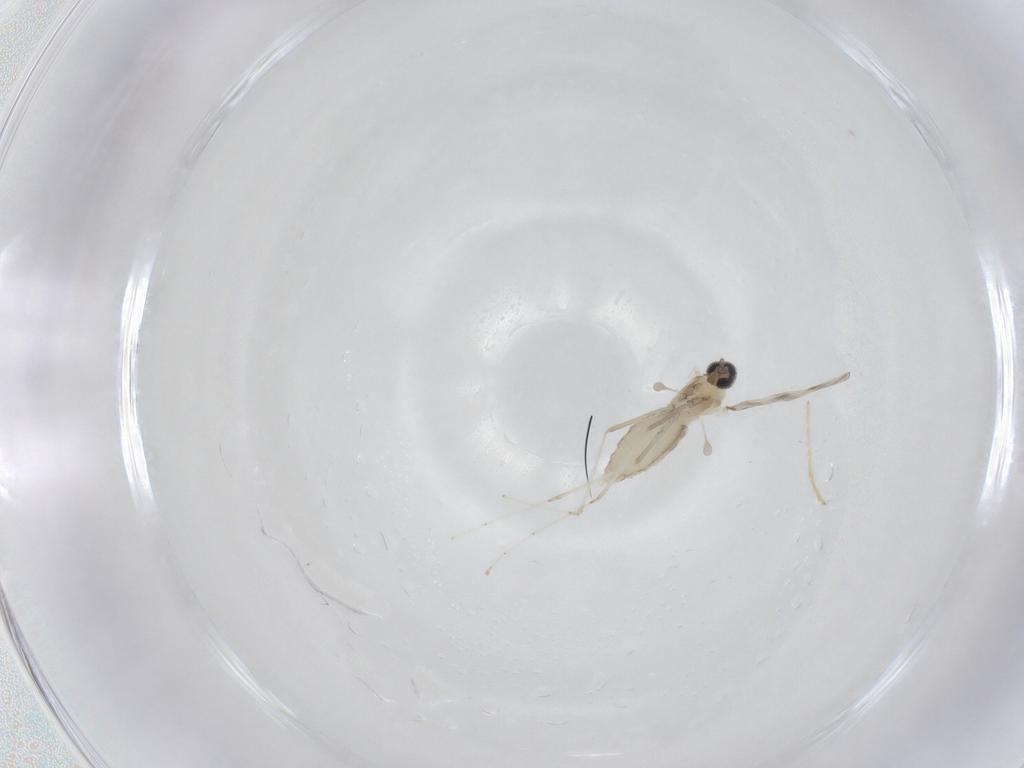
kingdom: Animalia
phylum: Arthropoda
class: Insecta
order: Diptera
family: Cecidomyiidae
